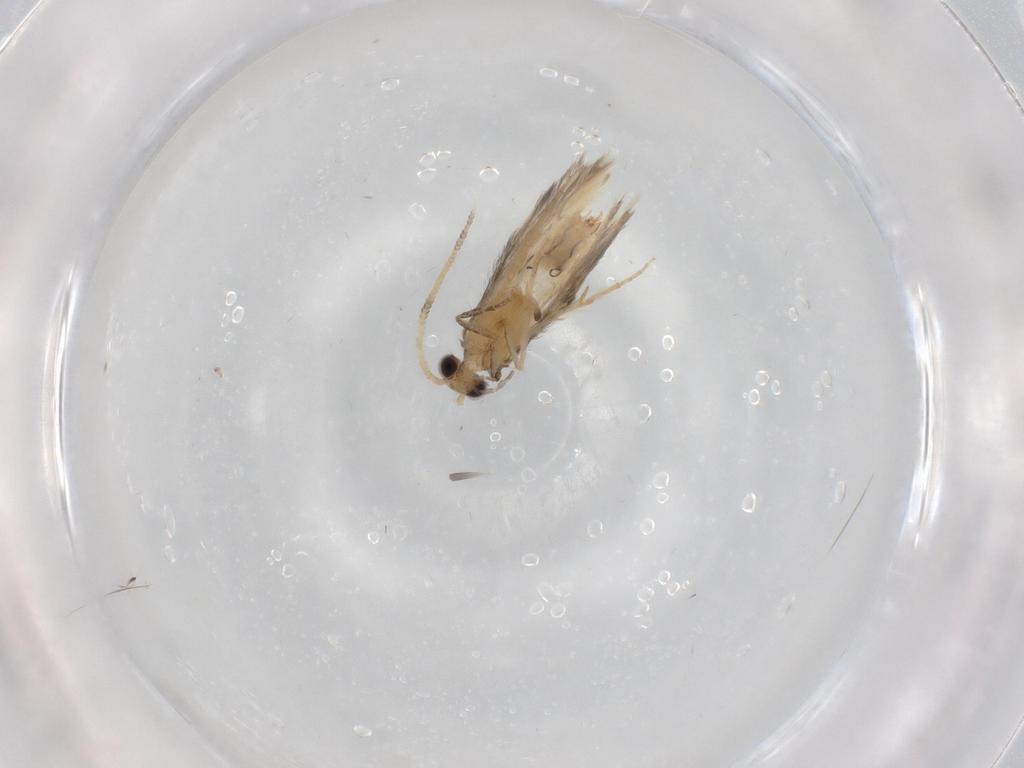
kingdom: Animalia
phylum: Arthropoda
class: Insecta
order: Trichoptera
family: Hydroptilidae
